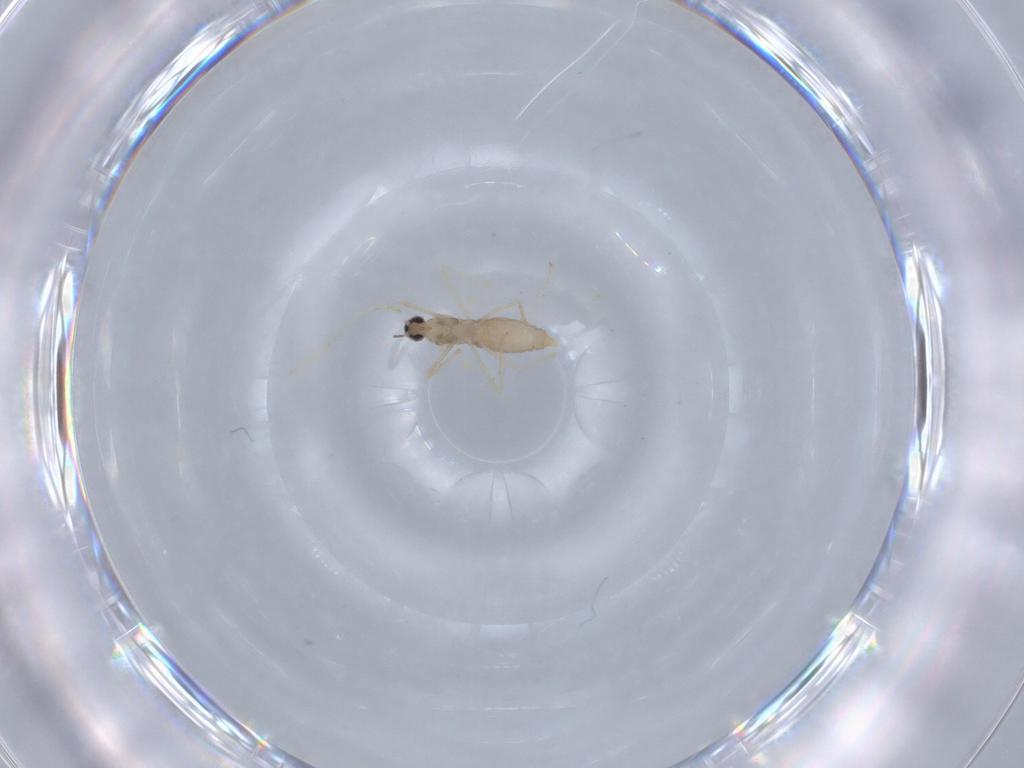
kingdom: Animalia
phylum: Arthropoda
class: Insecta
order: Diptera
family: Cecidomyiidae
